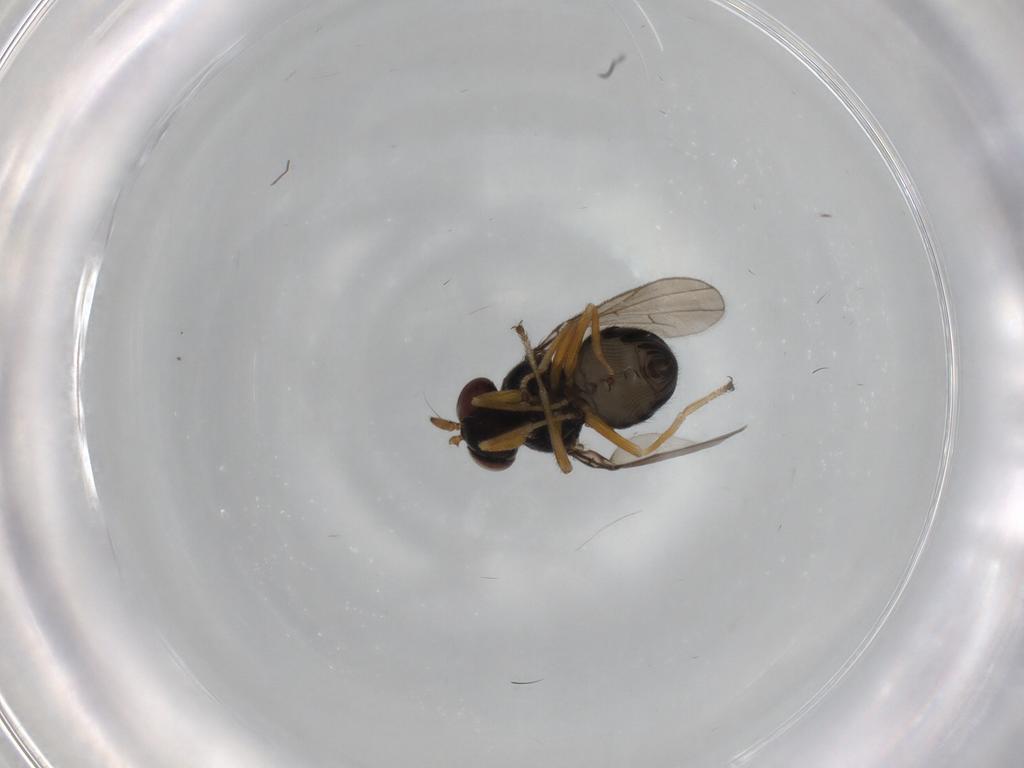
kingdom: Animalia
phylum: Arthropoda
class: Insecta
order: Diptera
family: Ephydridae
